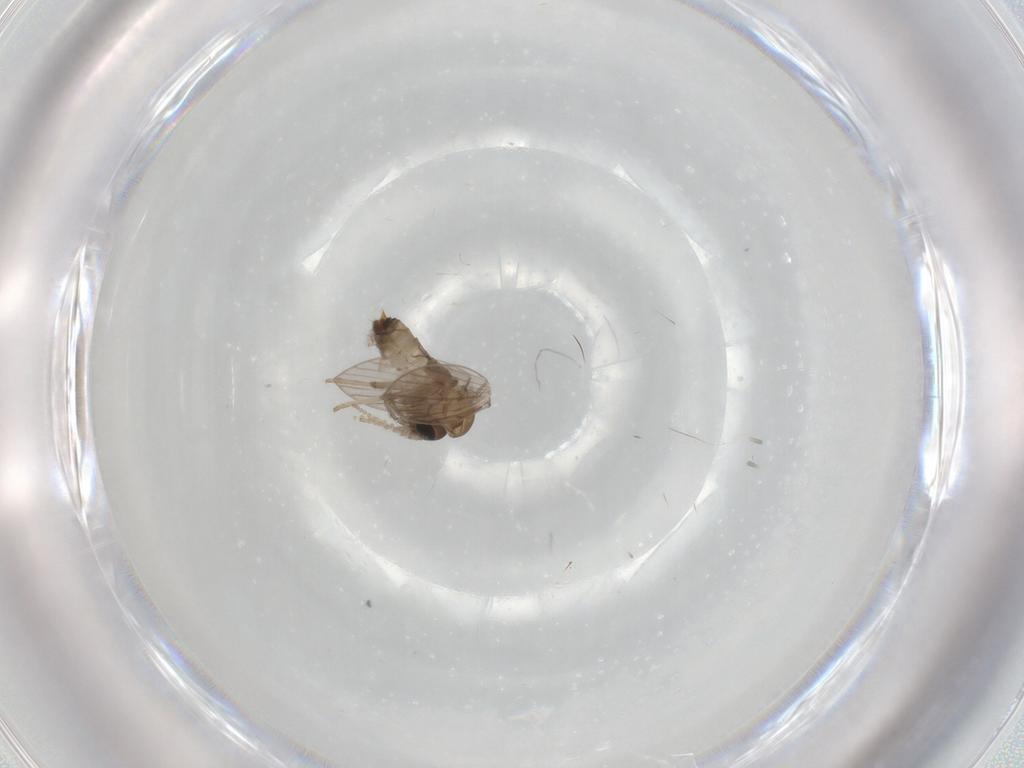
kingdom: Animalia
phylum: Arthropoda
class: Insecta
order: Diptera
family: Psychodidae
